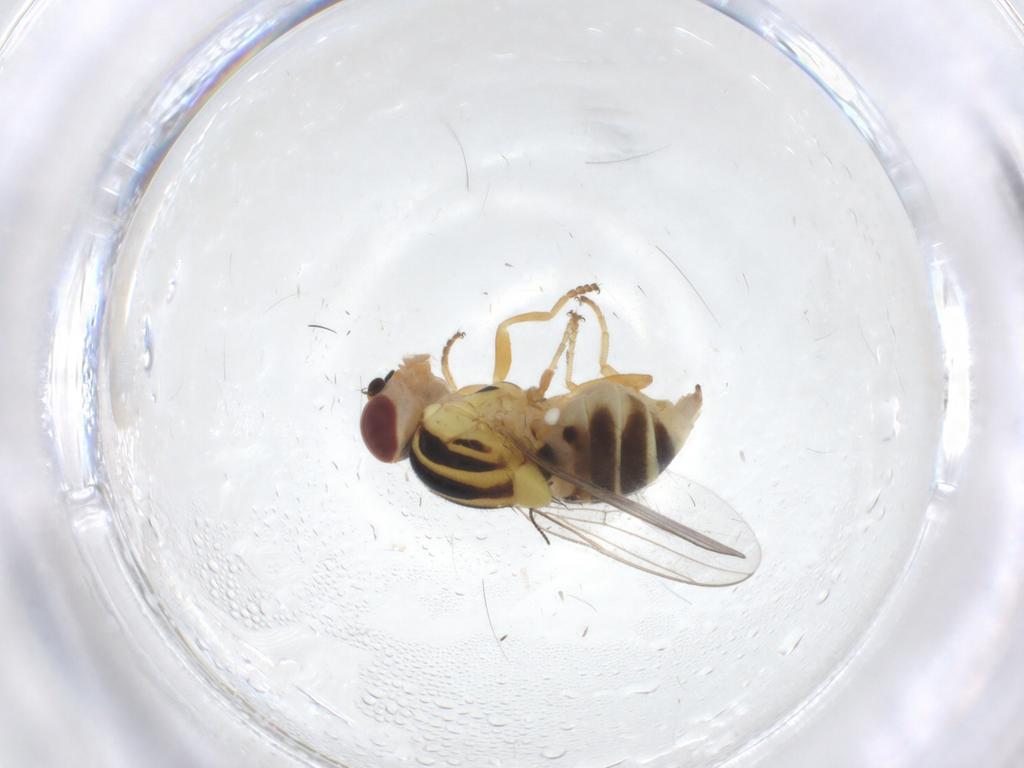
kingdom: Animalia
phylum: Arthropoda
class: Insecta
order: Diptera
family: Chloropidae
